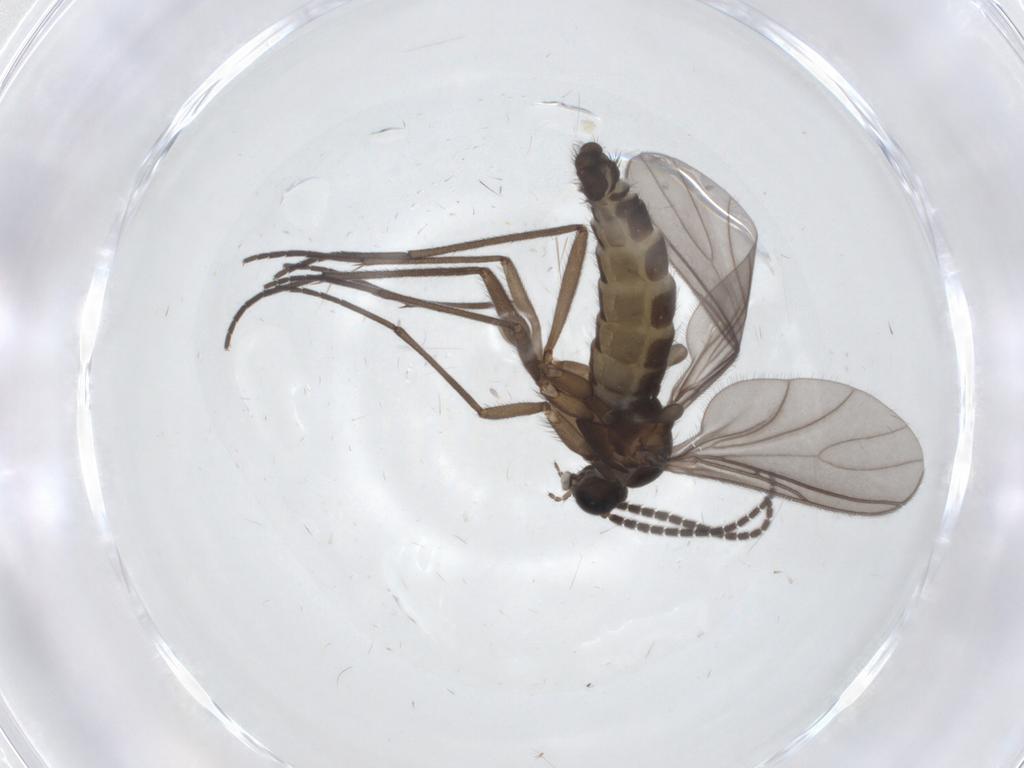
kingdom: Animalia
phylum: Arthropoda
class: Insecta
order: Diptera
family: Sciaridae
